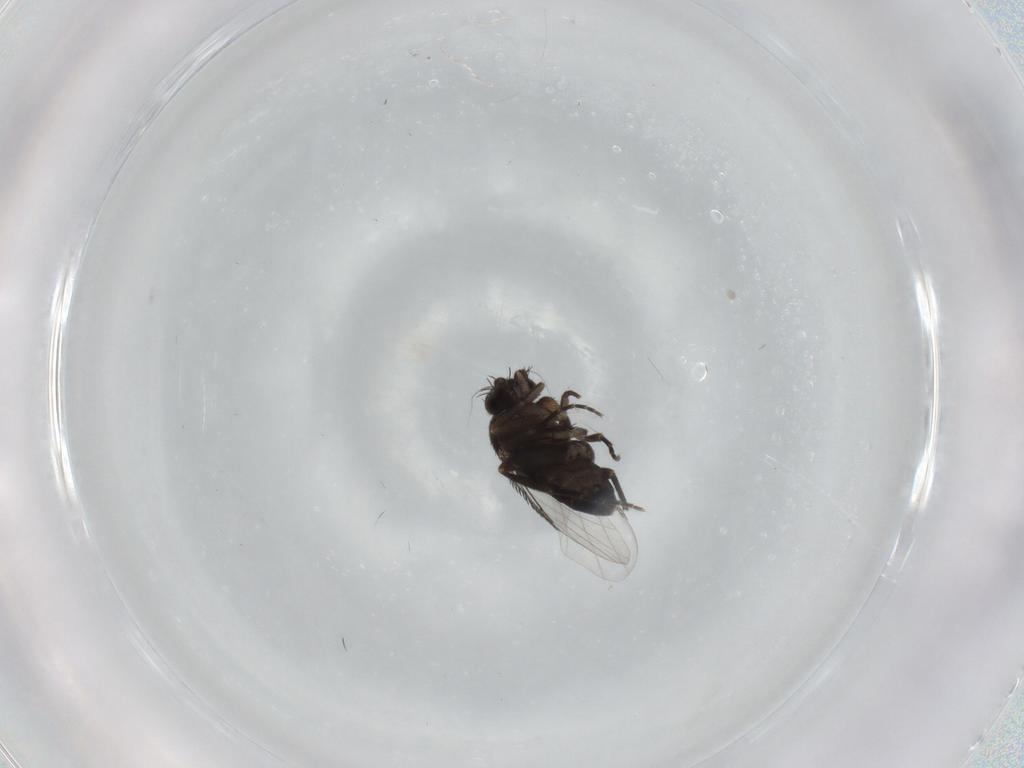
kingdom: Animalia
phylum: Arthropoda
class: Insecta
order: Diptera
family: Phoridae
